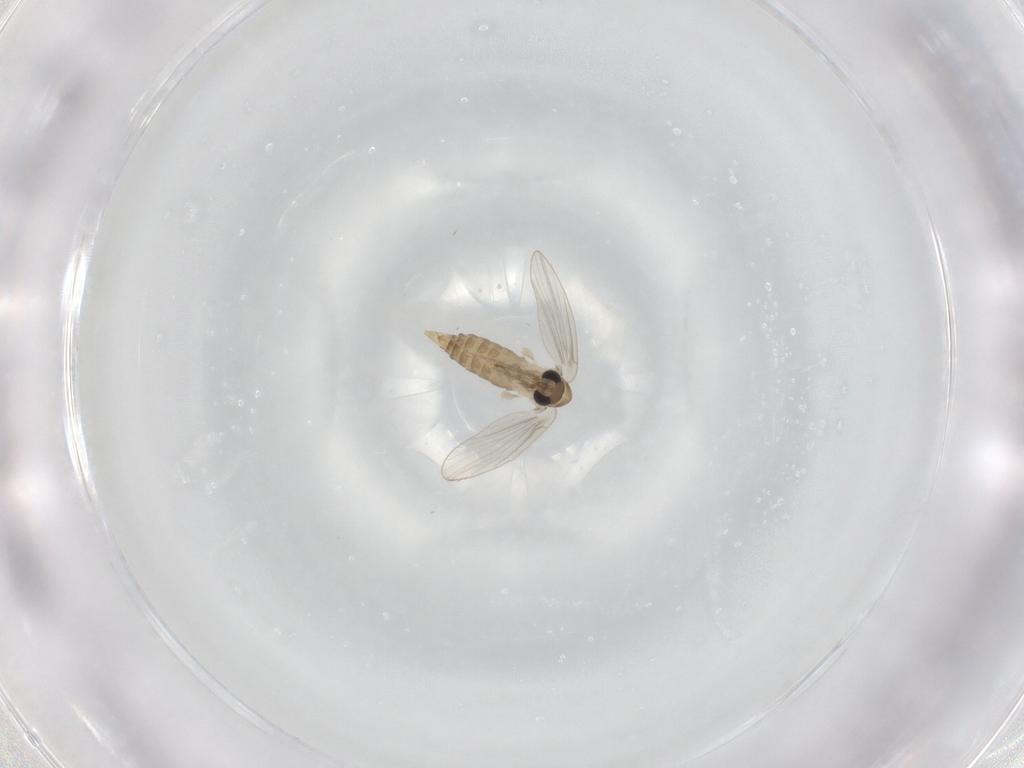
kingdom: Animalia
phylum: Arthropoda
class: Insecta
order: Diptera
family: Psychodidae
